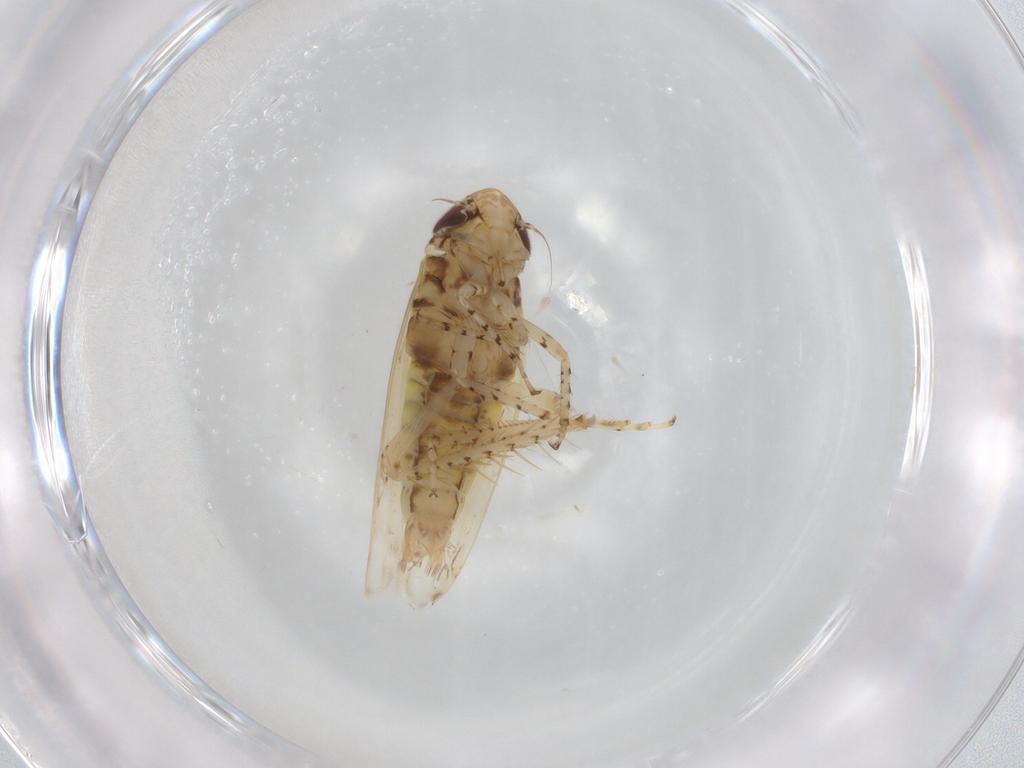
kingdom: Animalia
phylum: Arthropoda
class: Insecta
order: Hemiptera
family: Cicadellidae
